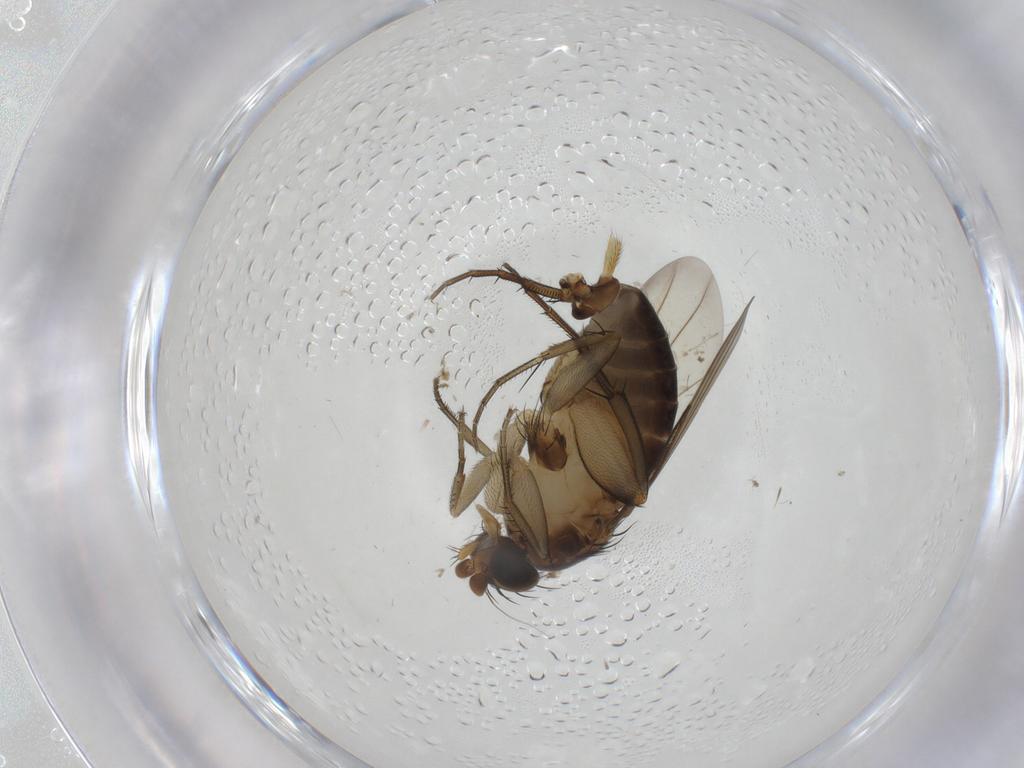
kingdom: Animalia
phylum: Arthropoda
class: Insecta
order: Diptera
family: Phoridae
